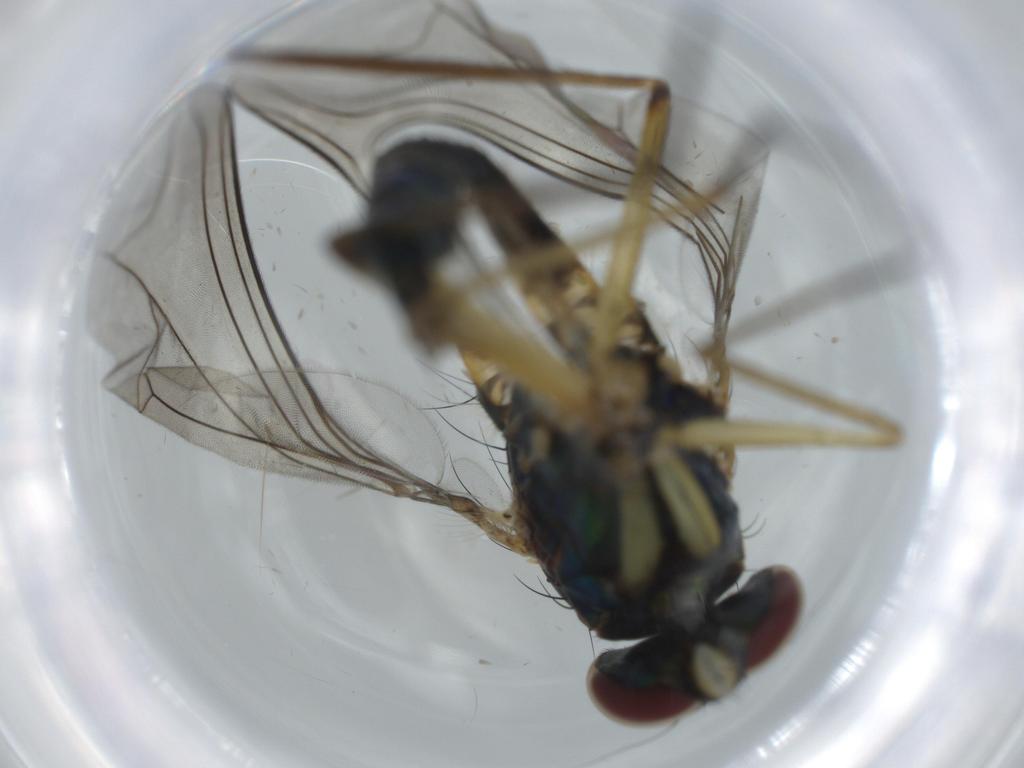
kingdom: Animalia
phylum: Arthropoda
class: Insecta
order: Diptera
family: Dolichopodidae
